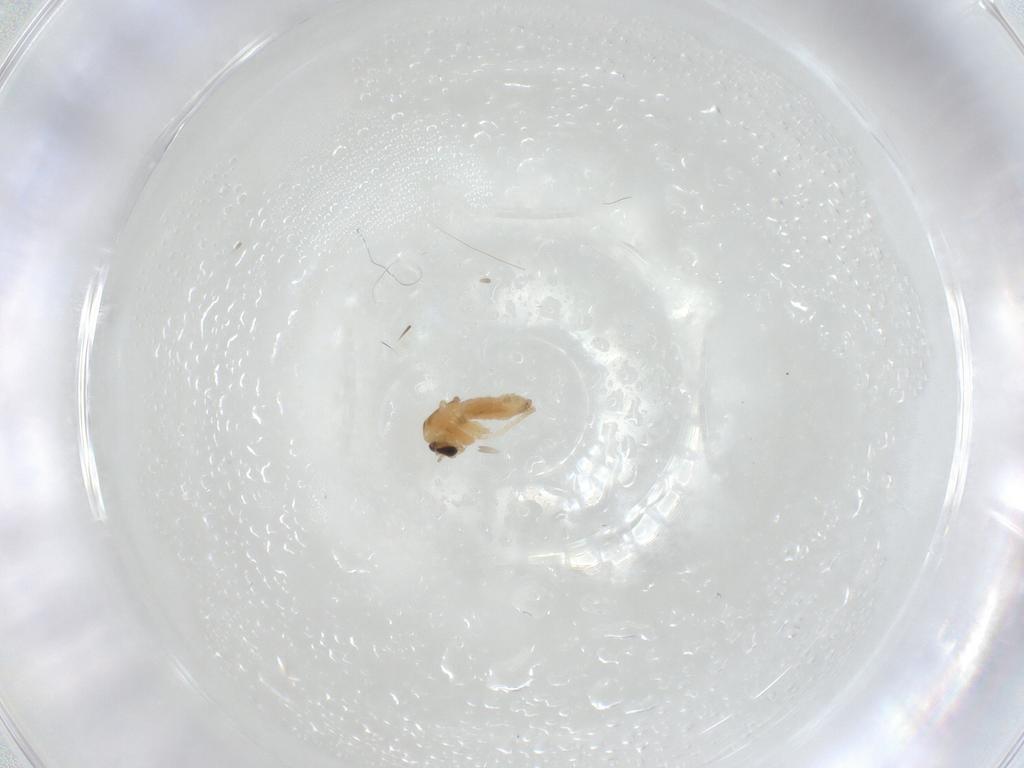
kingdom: Animalia
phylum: Arthropoda
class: Insecta
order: Diptera
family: Chironomidae
